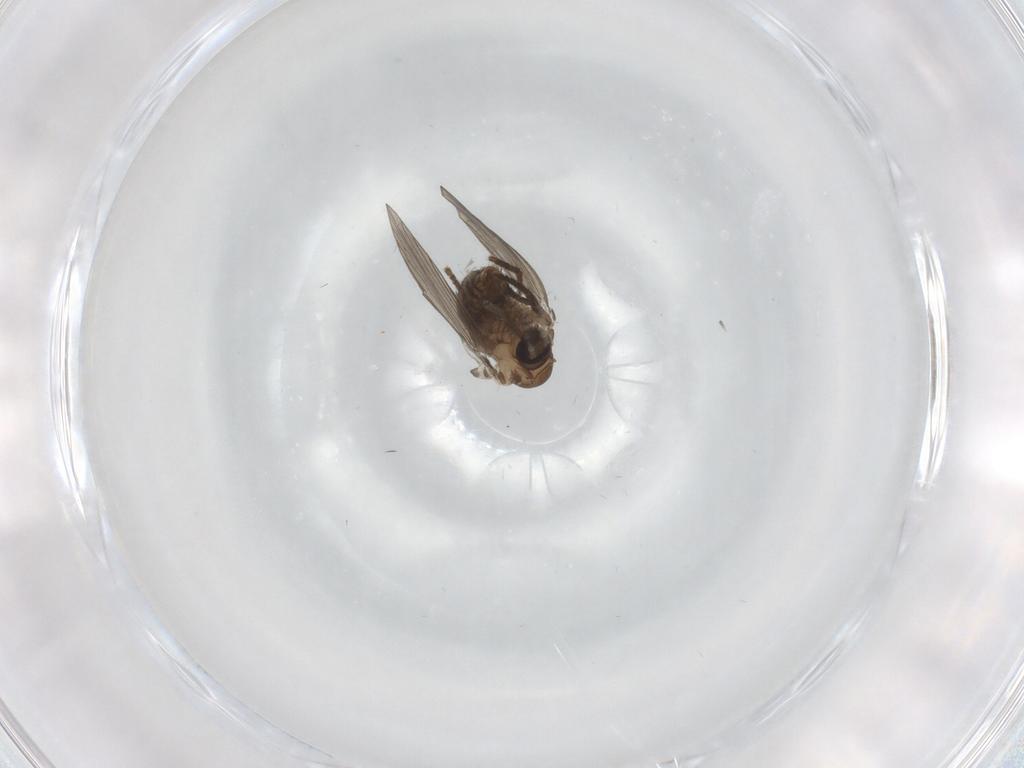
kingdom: Animalia
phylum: Arthropoda
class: Insecta
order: Diptera
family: Psychodidae
